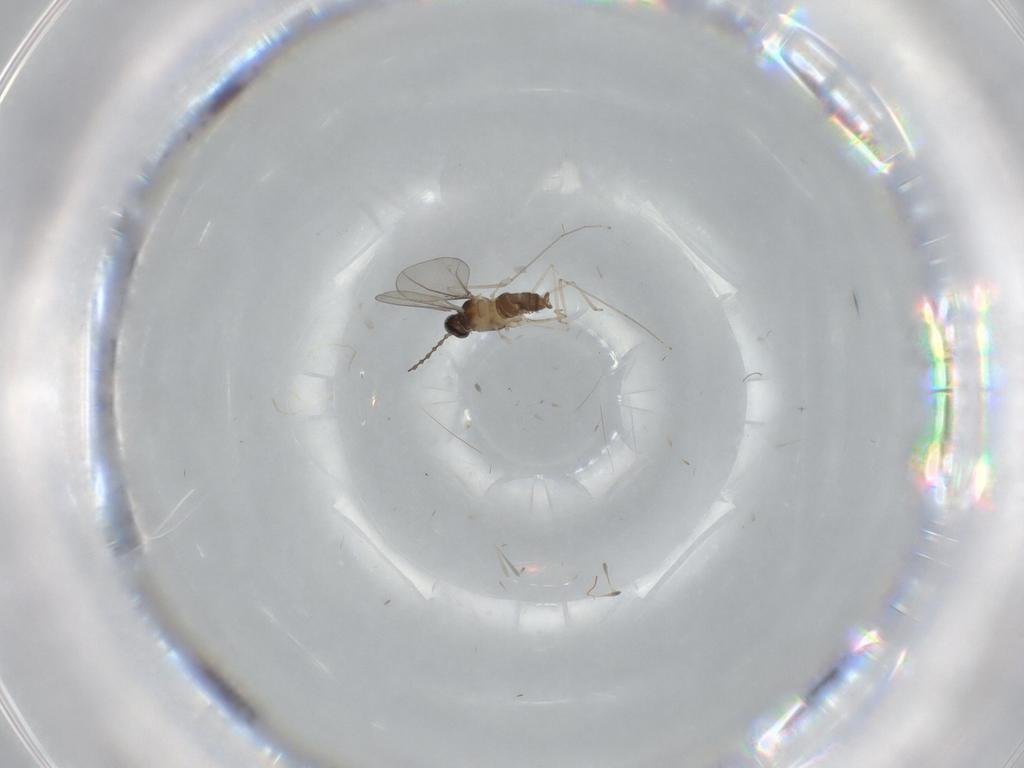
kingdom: Animalia
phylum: Arthropoda
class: Insecta
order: Diptera
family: Cecidomyiidae
